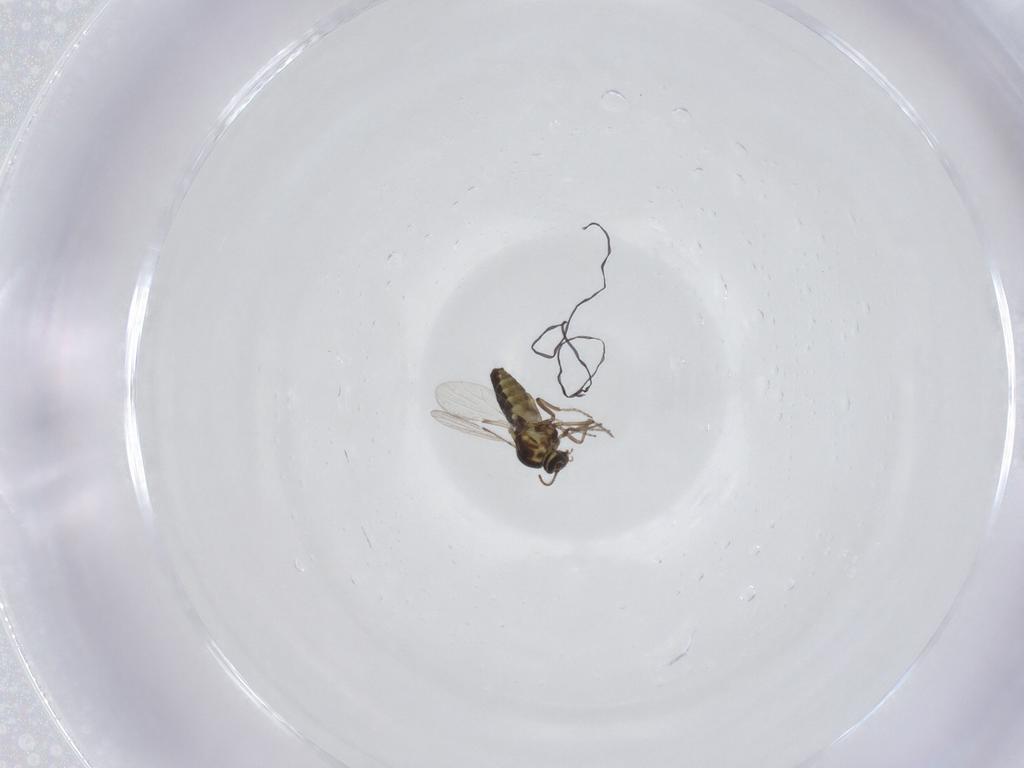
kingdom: Animalia
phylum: Arthropoda
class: Insecta
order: Diptera
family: Ceratopogonidae
